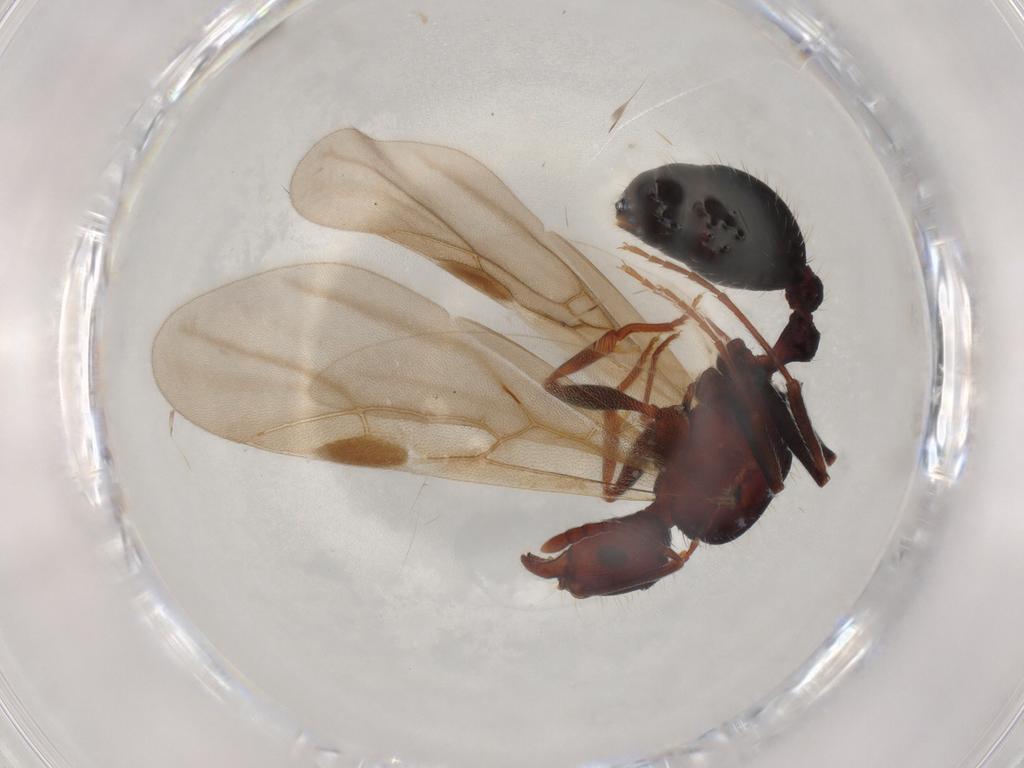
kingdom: Animalia
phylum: Arthropoda
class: Insecta
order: Hymenoptera
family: Formicidae
